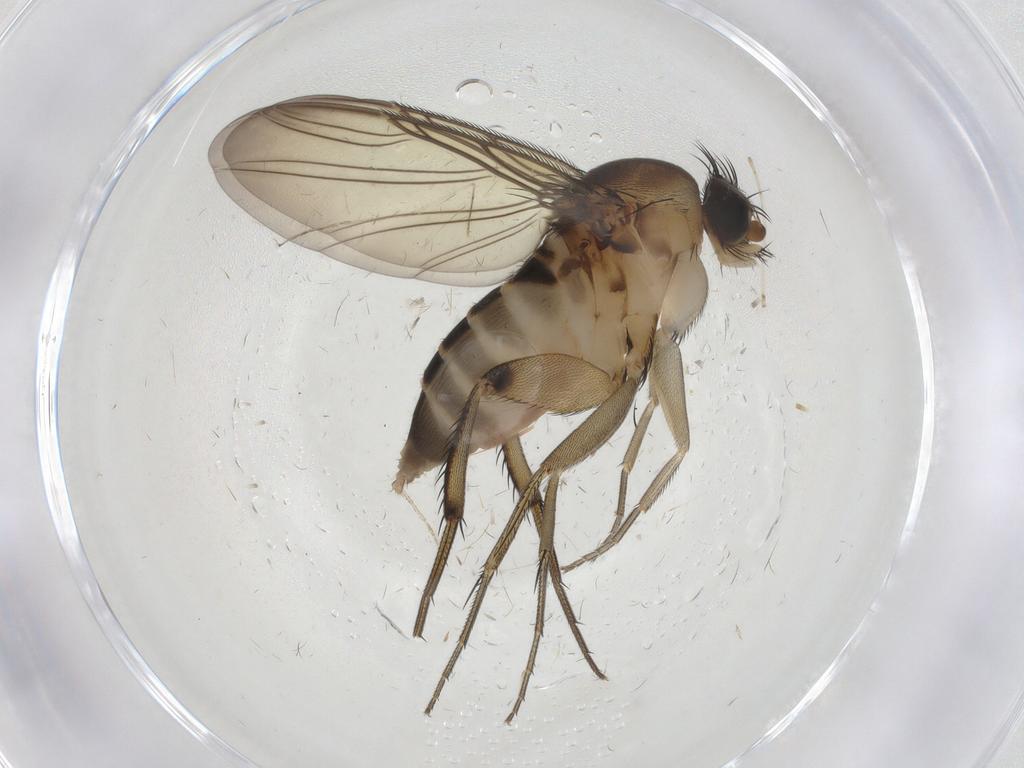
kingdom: Animalia
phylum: Arthropoda
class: Insecta
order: Diptera
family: Phoridae
